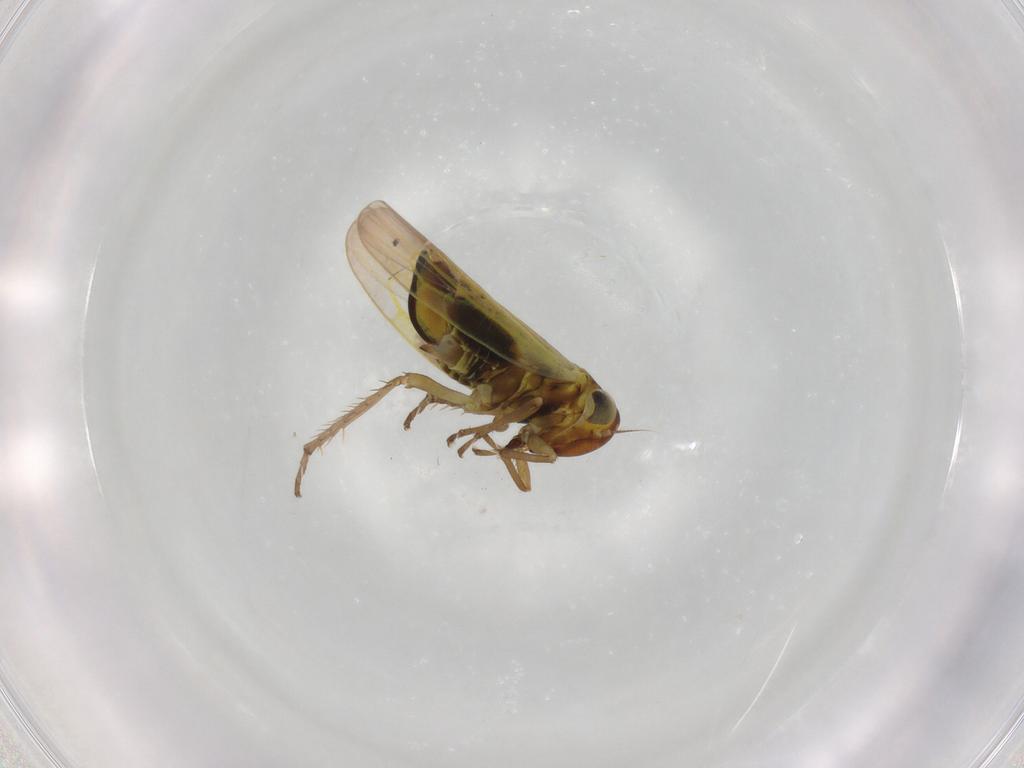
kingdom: Animalia
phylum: Arthropoda
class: Insecta
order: Hemiptera
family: Cicadellidae
